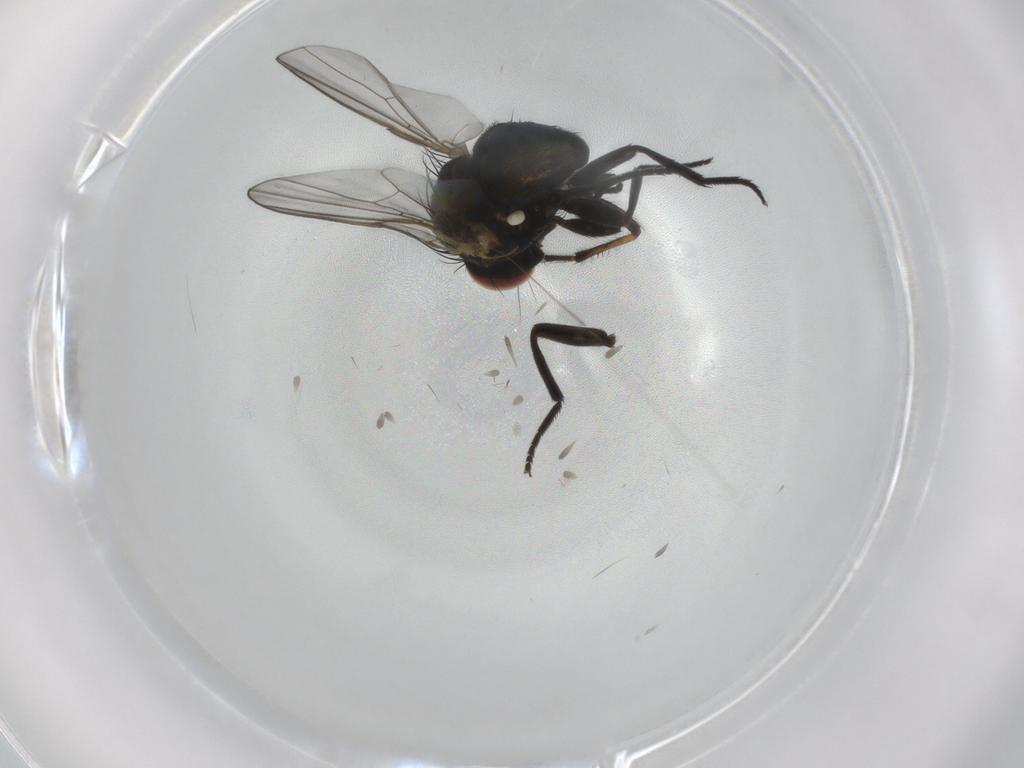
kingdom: Animalia
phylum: Arthropoda
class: Insecta
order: Diptera
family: Agromyzidae
